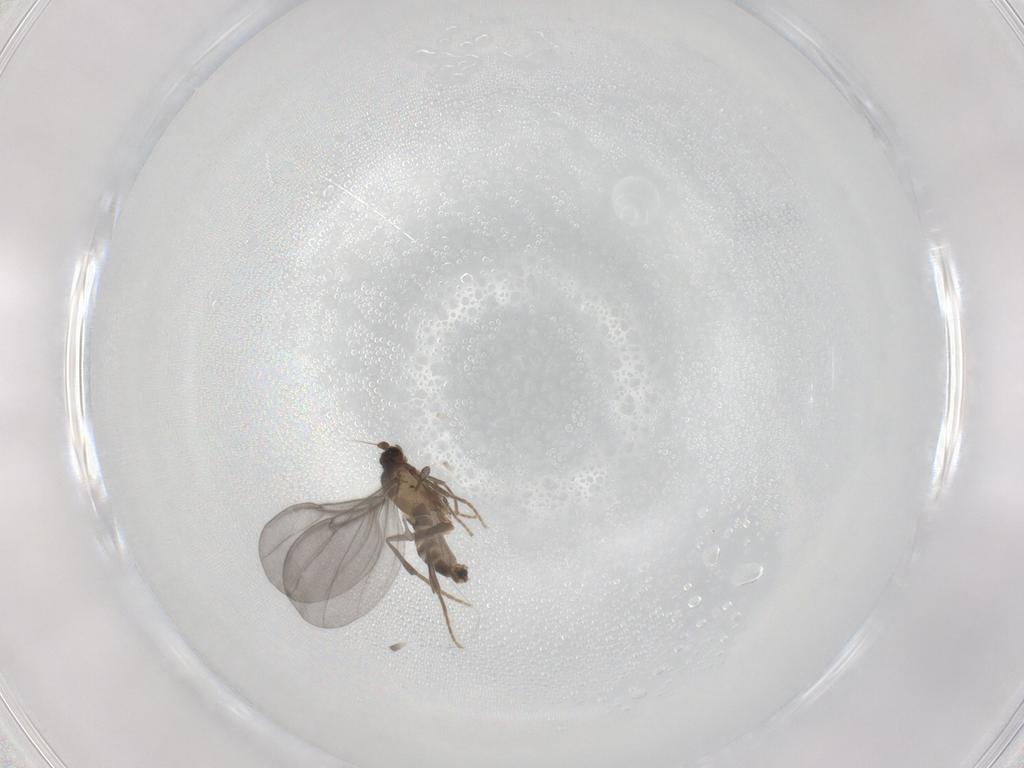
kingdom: Animalia
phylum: Arthropoda
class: Insecta
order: Diptera
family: Phoridae
